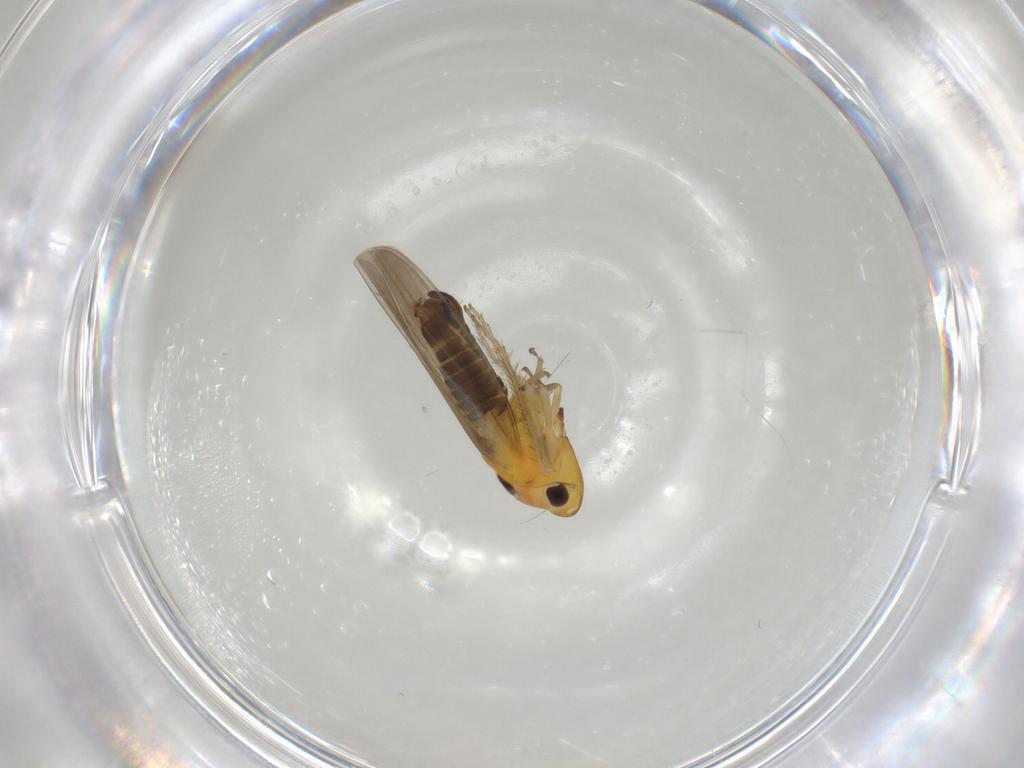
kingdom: Animalia
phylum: Arthropoda
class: Insecta
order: Hemiptera
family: Cicadellidae
